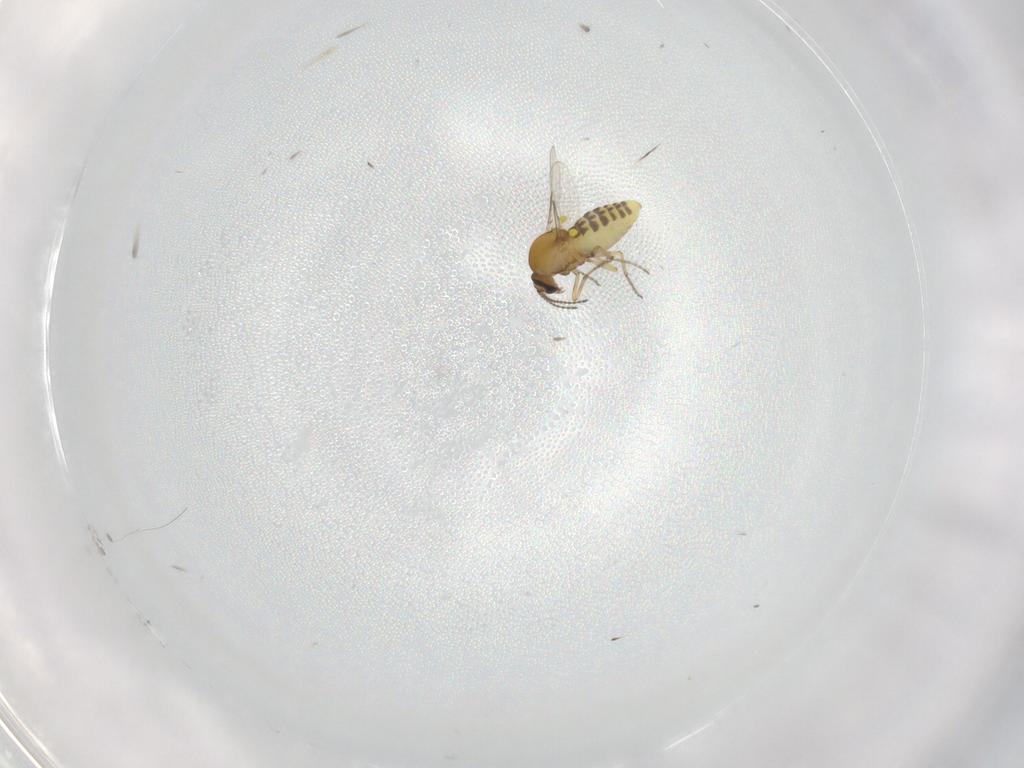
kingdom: Animalia
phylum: Arthropoda
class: Insecta
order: Diptera
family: Ceratopogonidae
